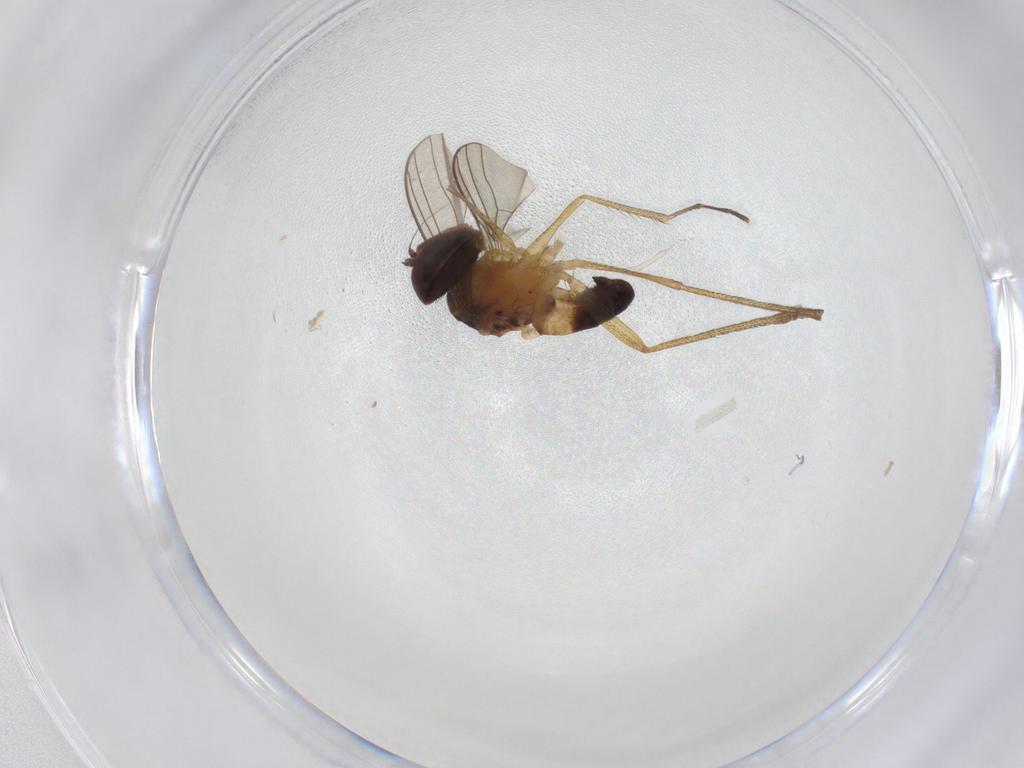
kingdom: Animalia
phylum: Arthropoda
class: Insecta
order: Diptera
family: Dolichopodidae
